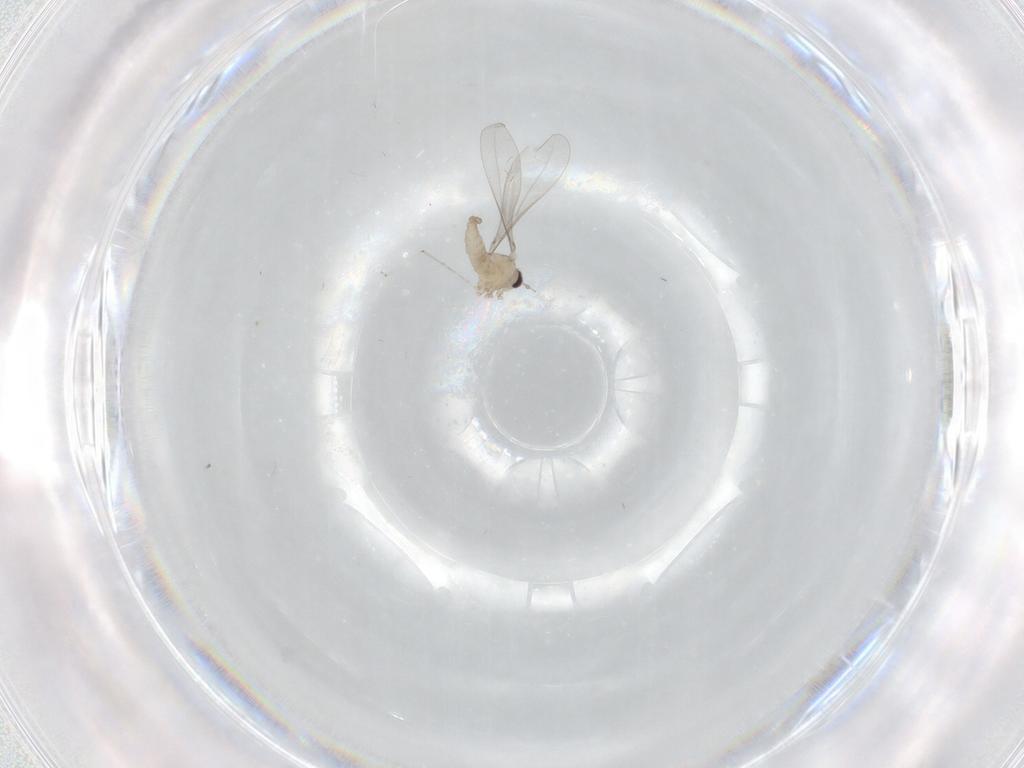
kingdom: Animalia
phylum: Arthropoda
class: Insecta
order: Diptera
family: Cecidomyiidae
